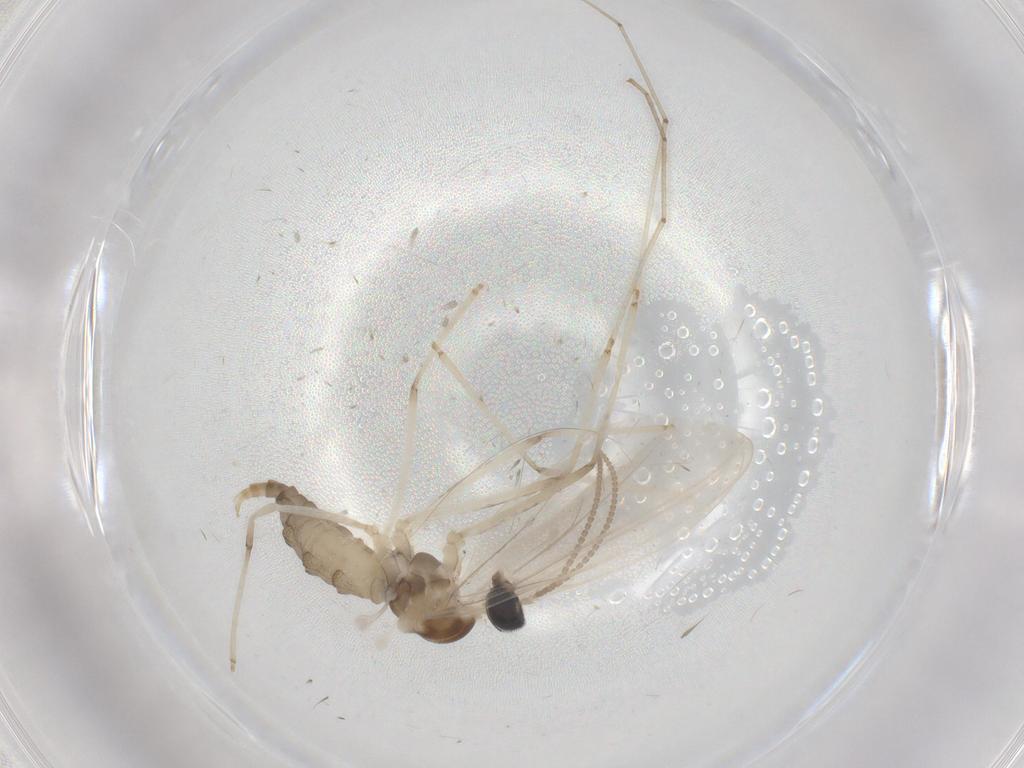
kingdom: Animalia
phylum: Arthropoda
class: Insecta
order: Diptera
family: Cecidomyiidae
